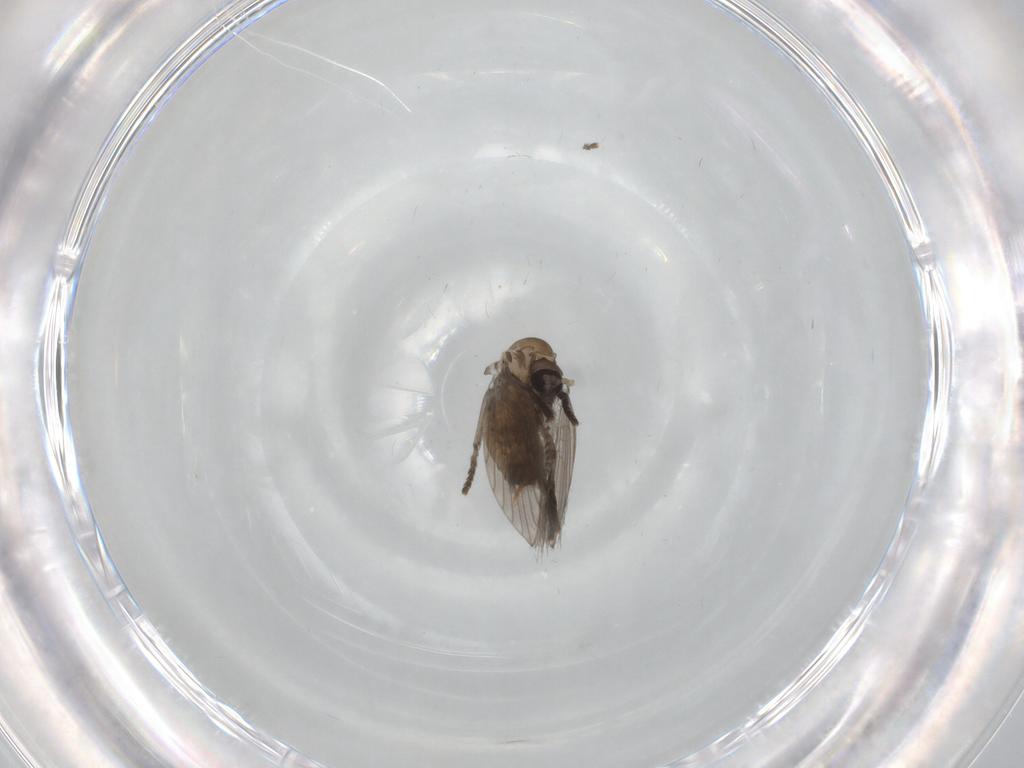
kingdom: Animalia
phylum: Arthropoda
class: Insecta
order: Diptera
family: Psychodidae
